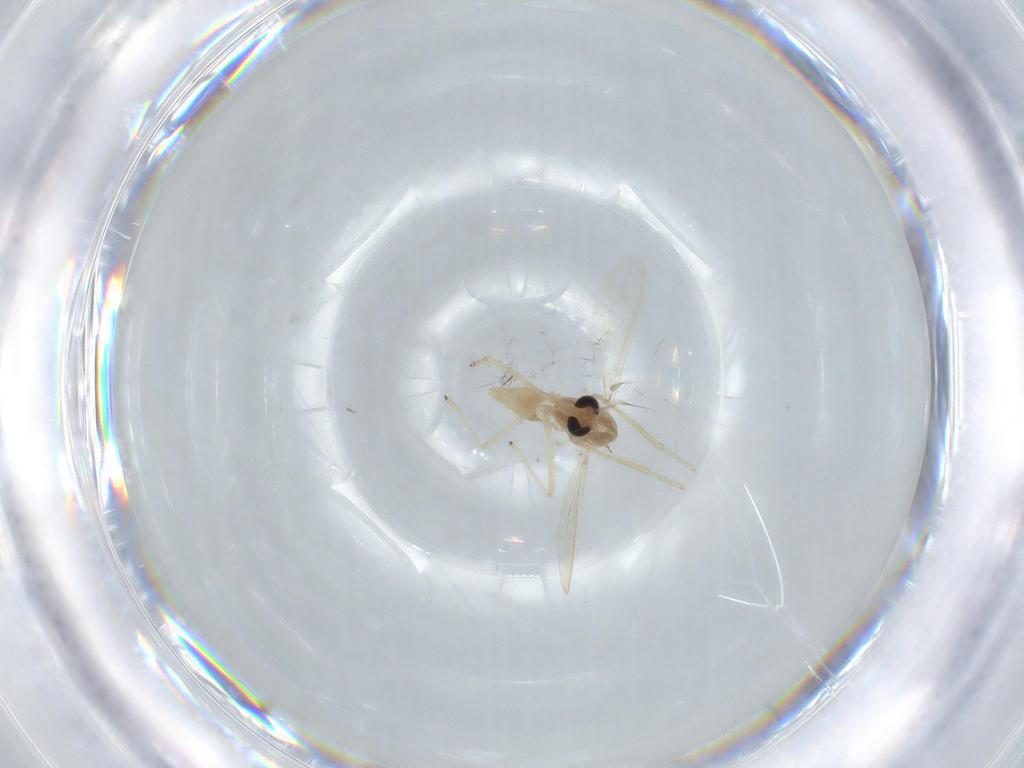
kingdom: Animalia
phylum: Arthropoda
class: Insecta
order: Diptera
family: Chironomidae
